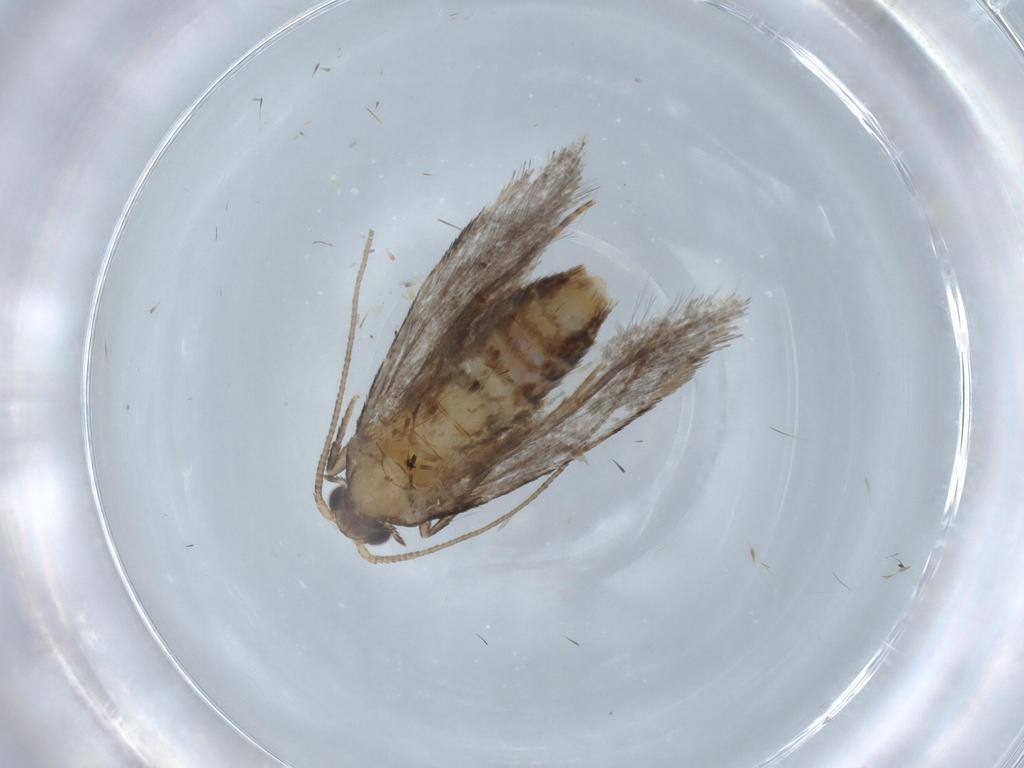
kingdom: Animalia
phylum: Arthropoda
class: Insecta
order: Lepidoptera
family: Tineidae
